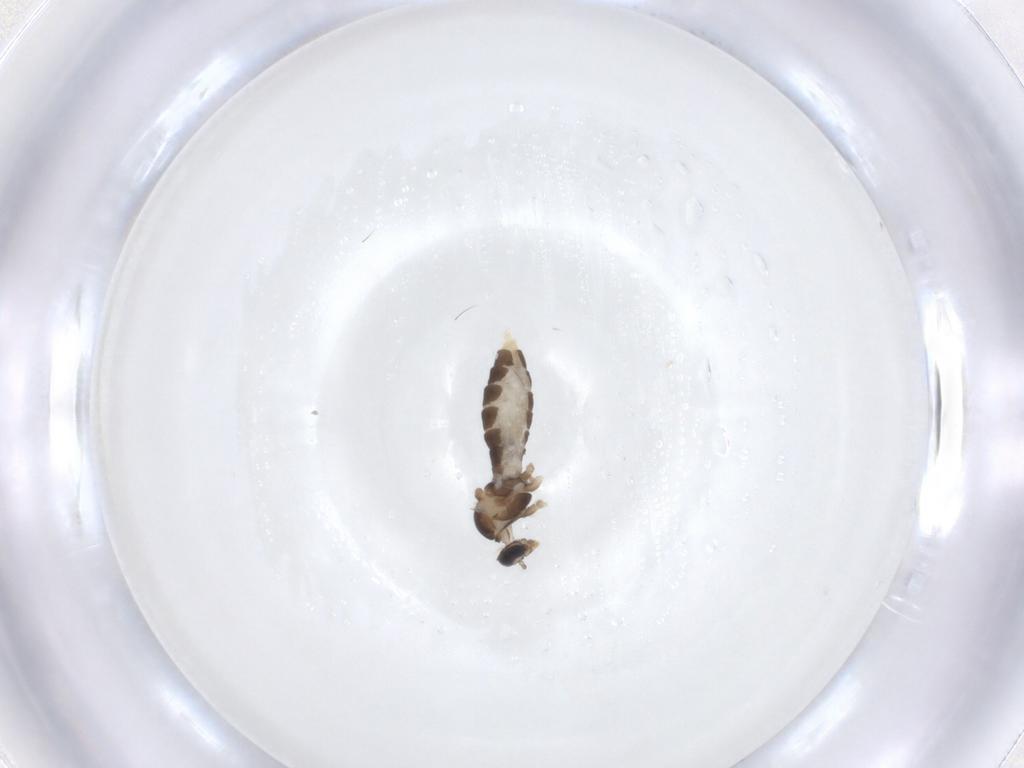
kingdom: Animalia
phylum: Arthropoda
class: Insecta
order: Diptera
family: Cecidomyiidae
